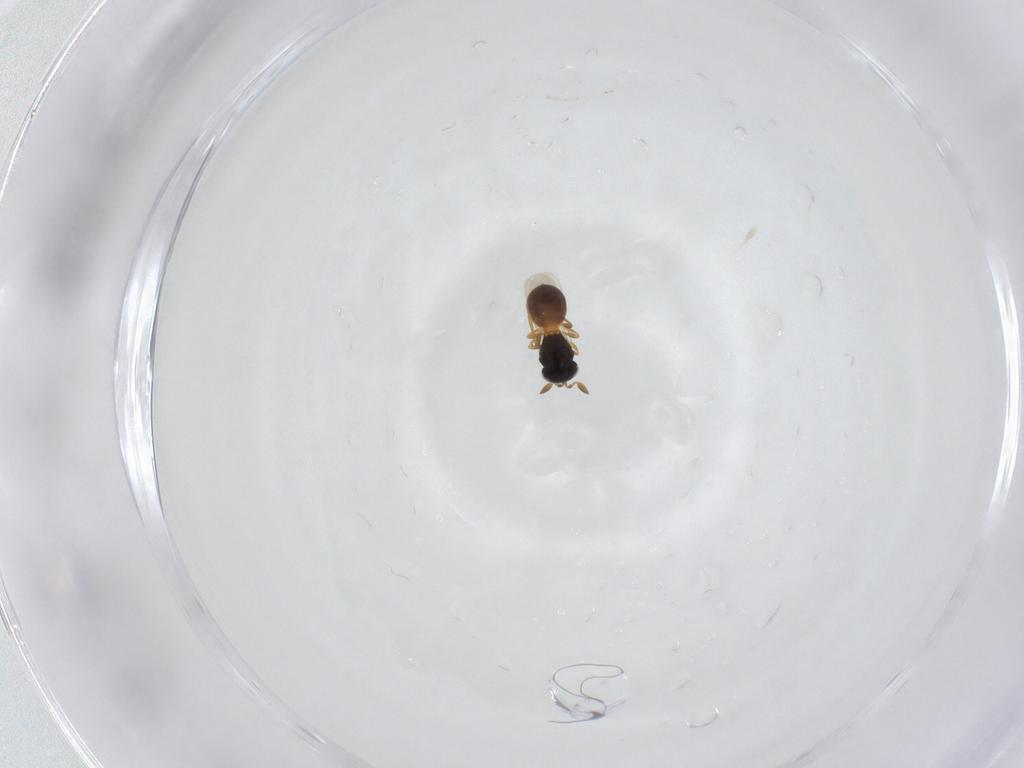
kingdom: Animalia
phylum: Arthropoda
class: Insecta
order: Hymenoptera
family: Scelionidae
